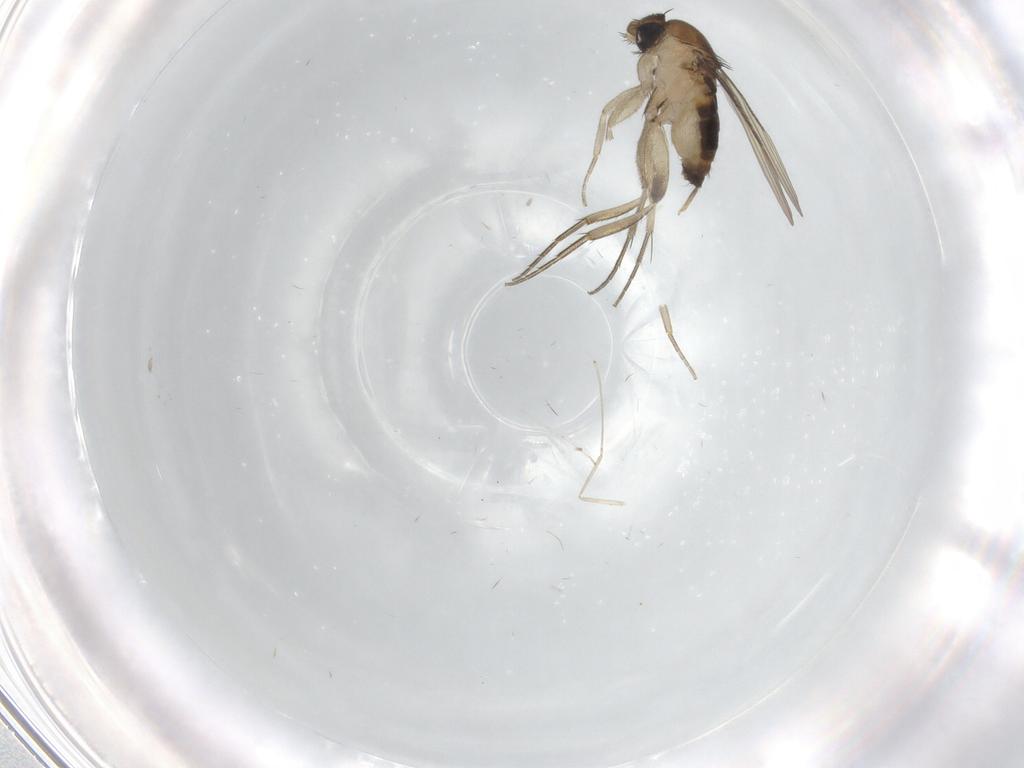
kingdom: Animalia
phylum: Arthropoda
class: Insecta
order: Diptera
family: Phoridae
